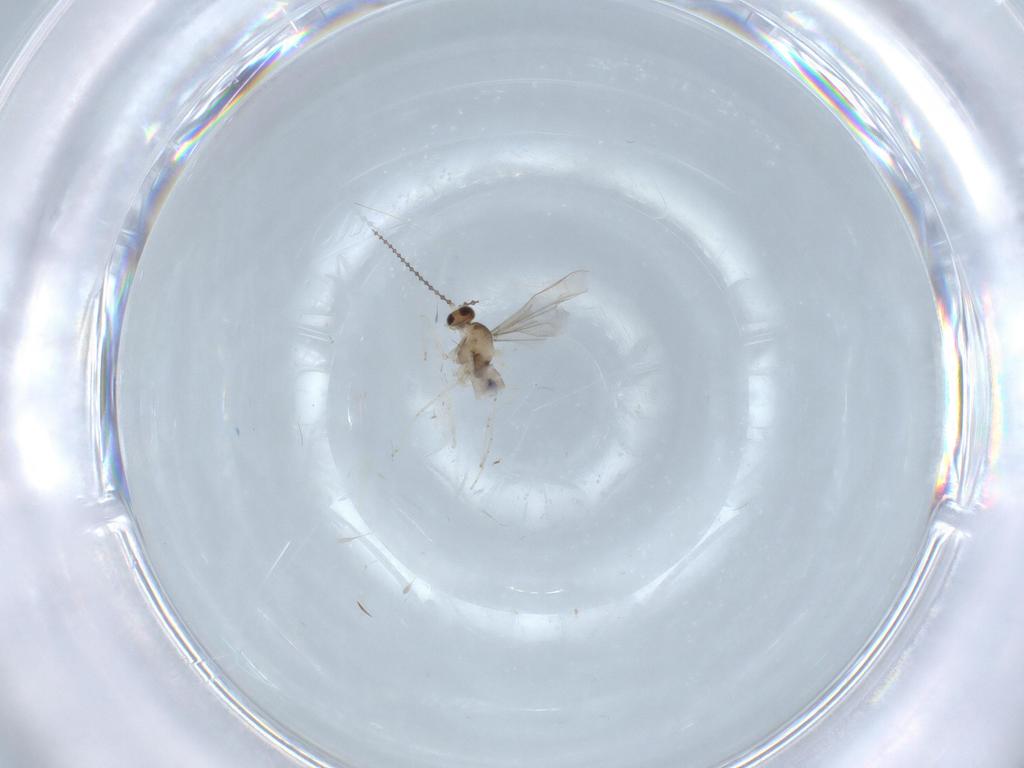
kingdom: Animalia
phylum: Arthropoda
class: Insecta
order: Diptera
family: Cecidomyiidae
